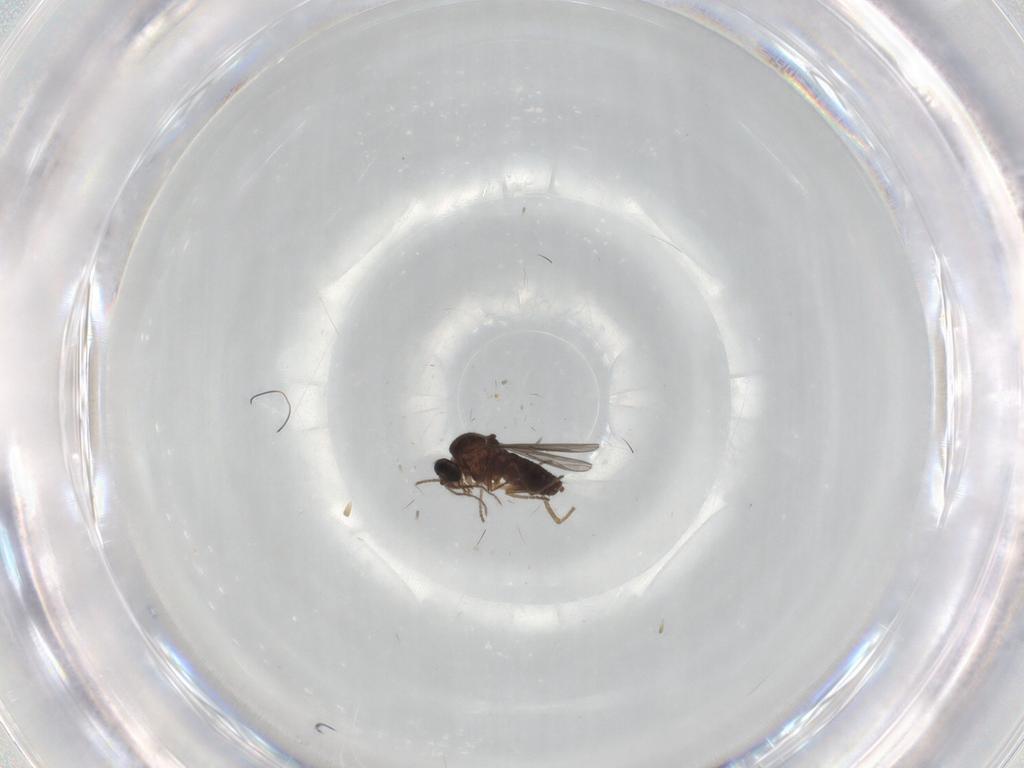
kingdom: Animalia
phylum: Arthropoda
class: Insecta
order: Diptera
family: Ceratopogonidae
